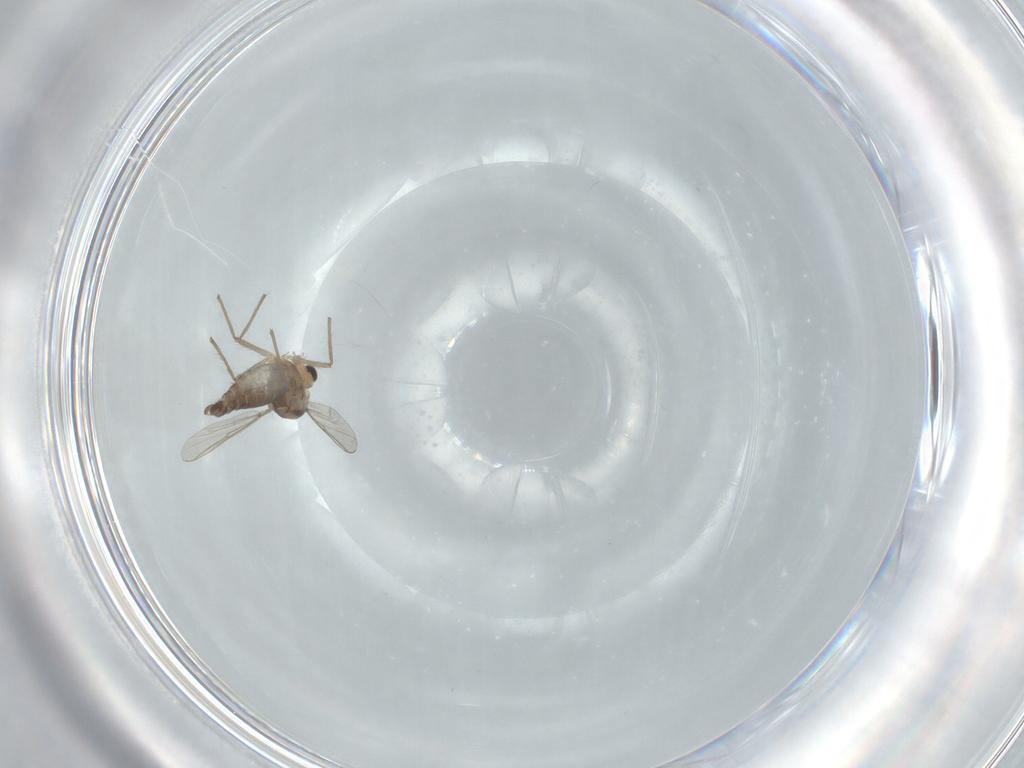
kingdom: Animalia
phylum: Arthropoda
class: Insecta
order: Diptera
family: Chironomidae
